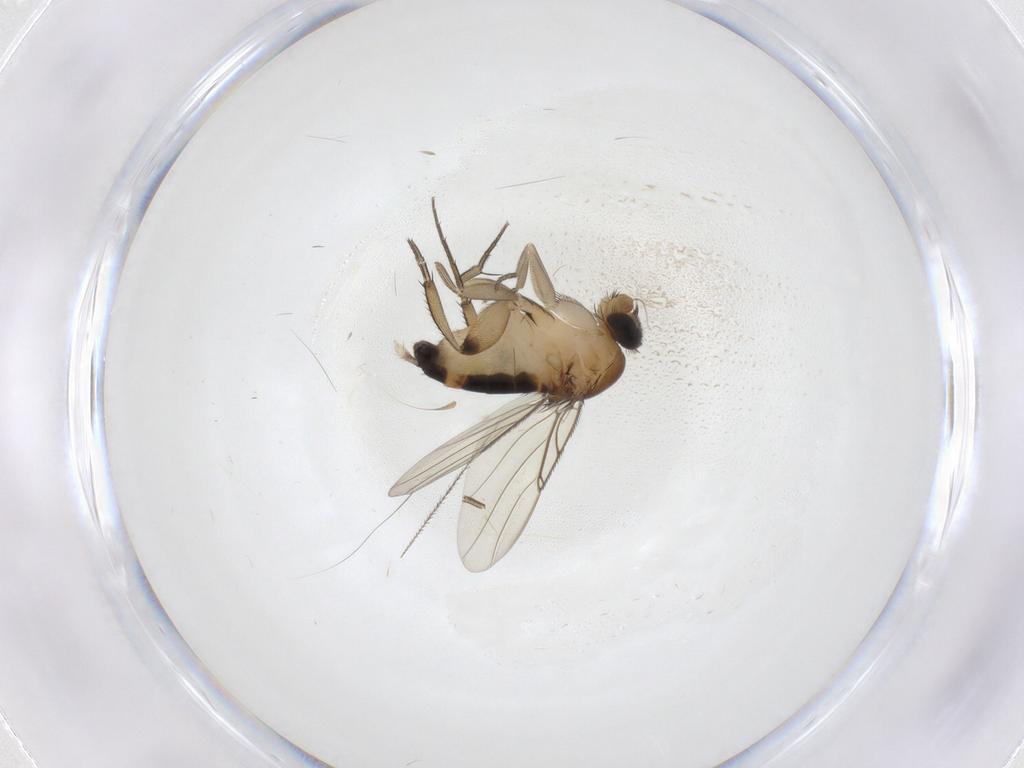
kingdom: Animalia
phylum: Arthropoda
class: Insecta
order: Diptera
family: Phoridae
